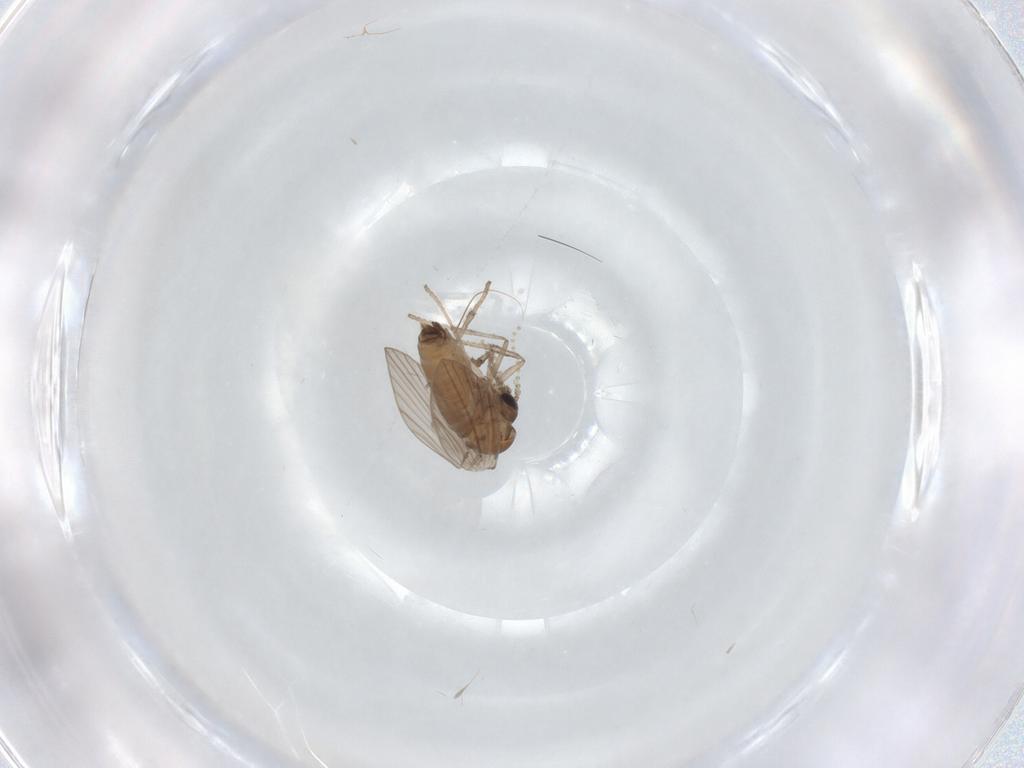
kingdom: Animalia
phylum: Arthropoda
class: Insecta
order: Diptera
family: Psychodidae
